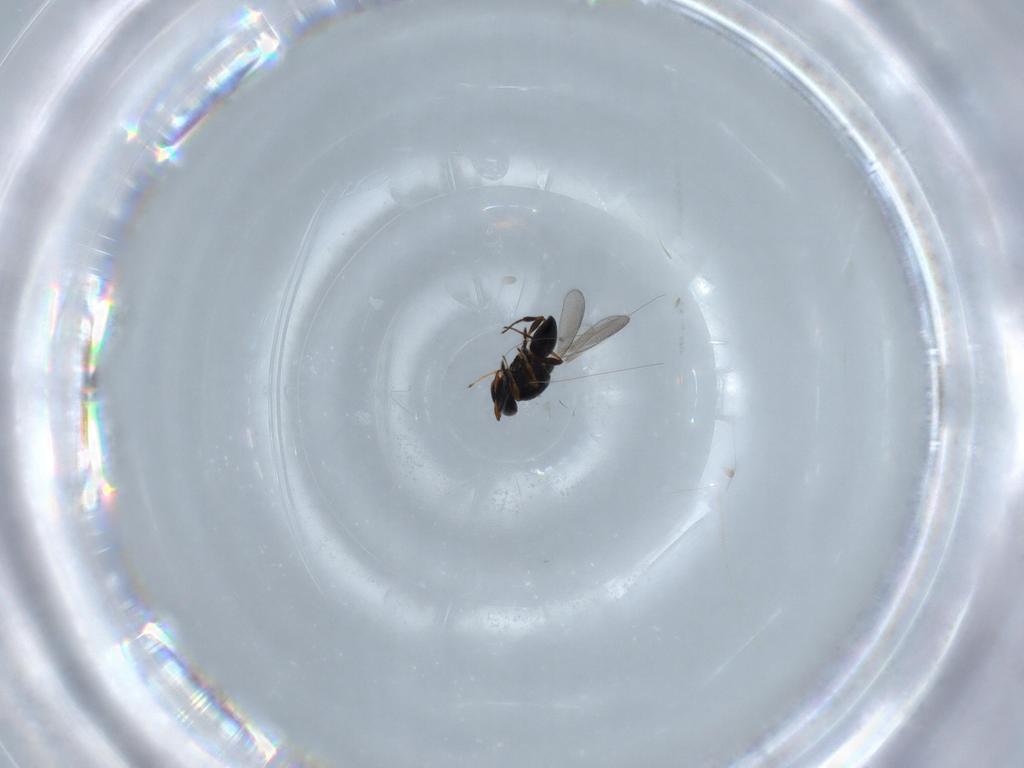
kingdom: Animalia
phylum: Arthropoda
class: Insecta
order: Hymenoptera
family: Platygastridae
